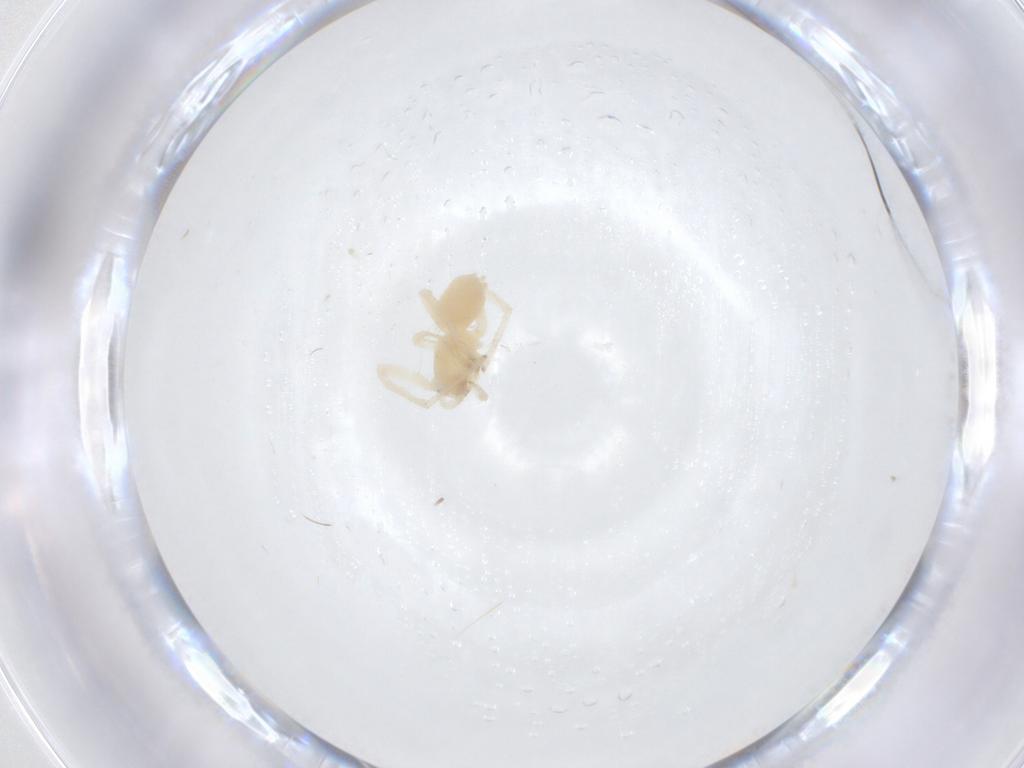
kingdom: Animalia
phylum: Arthropoda
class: Arachnida
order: Araneae
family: Anyphaenidae
